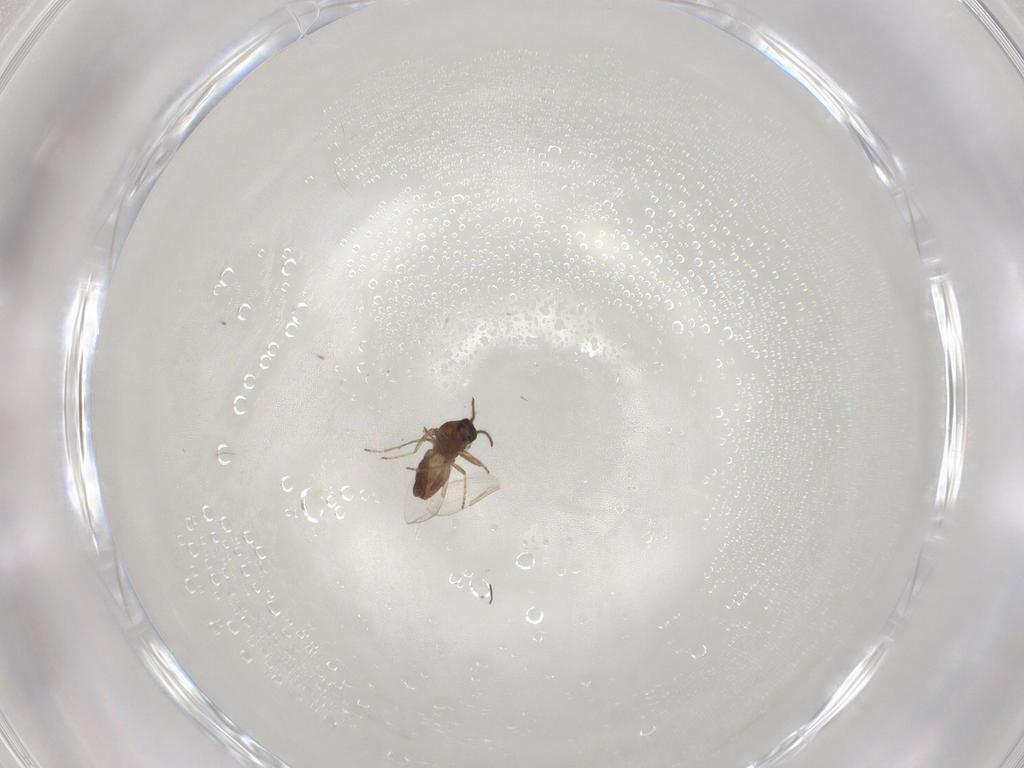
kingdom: Animalia
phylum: Arthropoda
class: Insecta
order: Diptera
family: Ceratopogonidae
